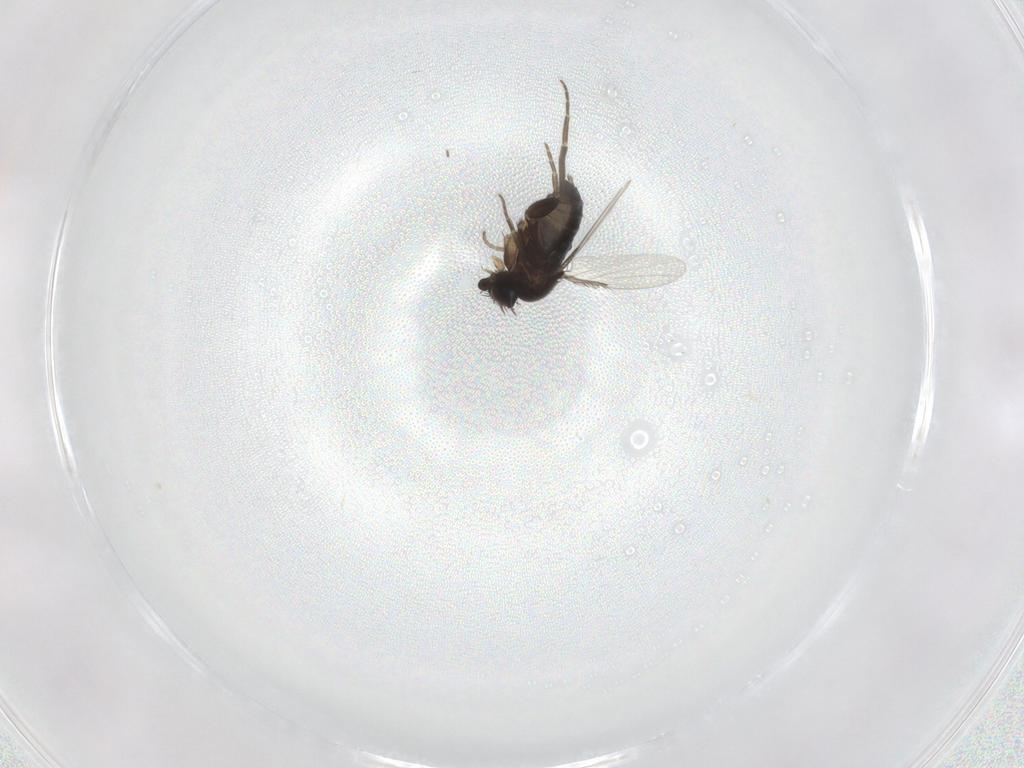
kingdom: Animalia
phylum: Arthropoda
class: Insecta
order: Diptera
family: Phoridae
